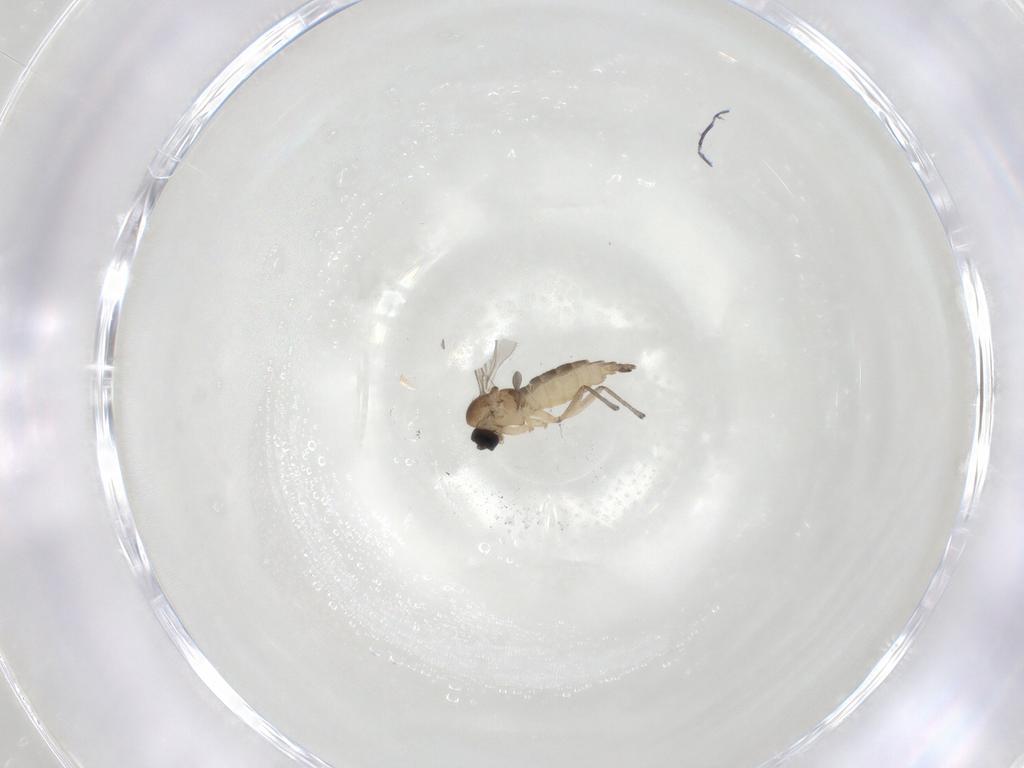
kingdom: Animalia
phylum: Arthropoda
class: Insecta
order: Diptera
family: Sciaridae
